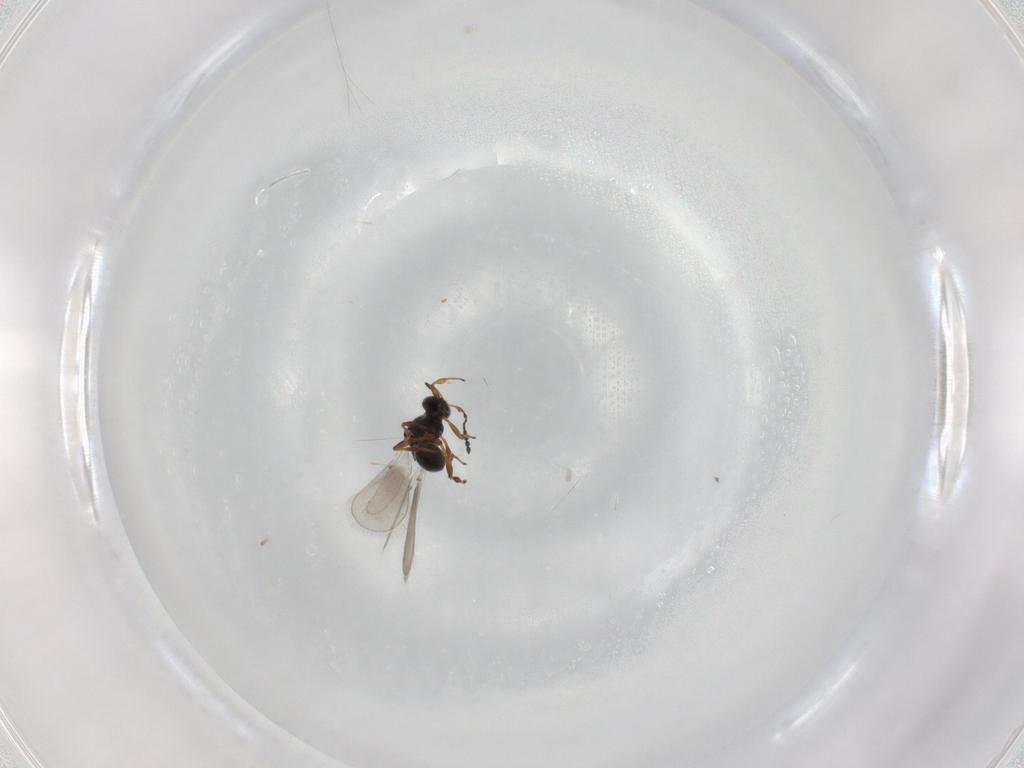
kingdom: Animalia
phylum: Arthropoda
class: Insecta
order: Hymenoptera
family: Platygastridae
